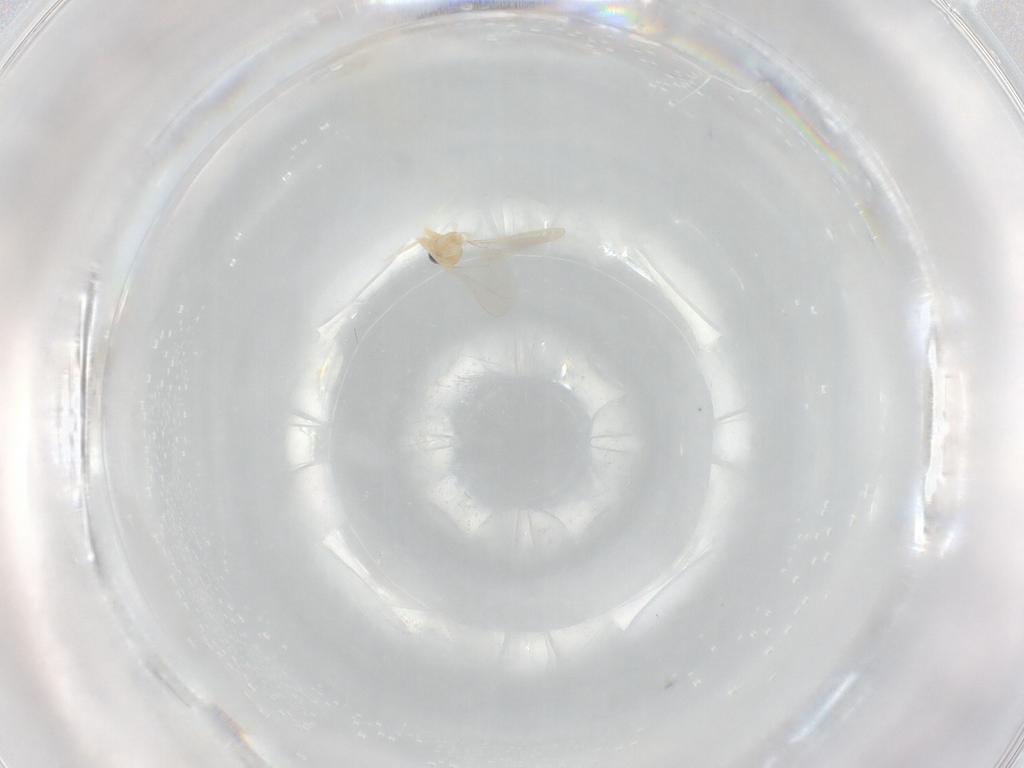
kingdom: Animalia
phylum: Arthropoda
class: Insecta
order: Diptera
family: Cecidomyiidae
